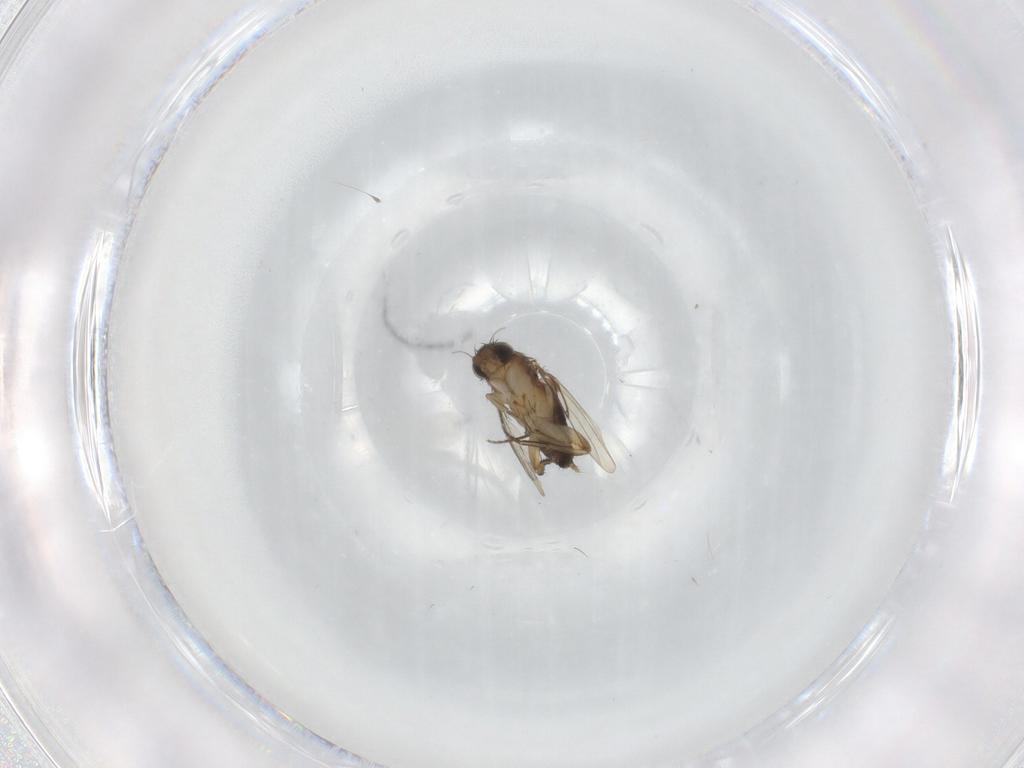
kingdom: Animalia
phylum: Arthropoda
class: Insecta
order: Diptera
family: Phoridae
